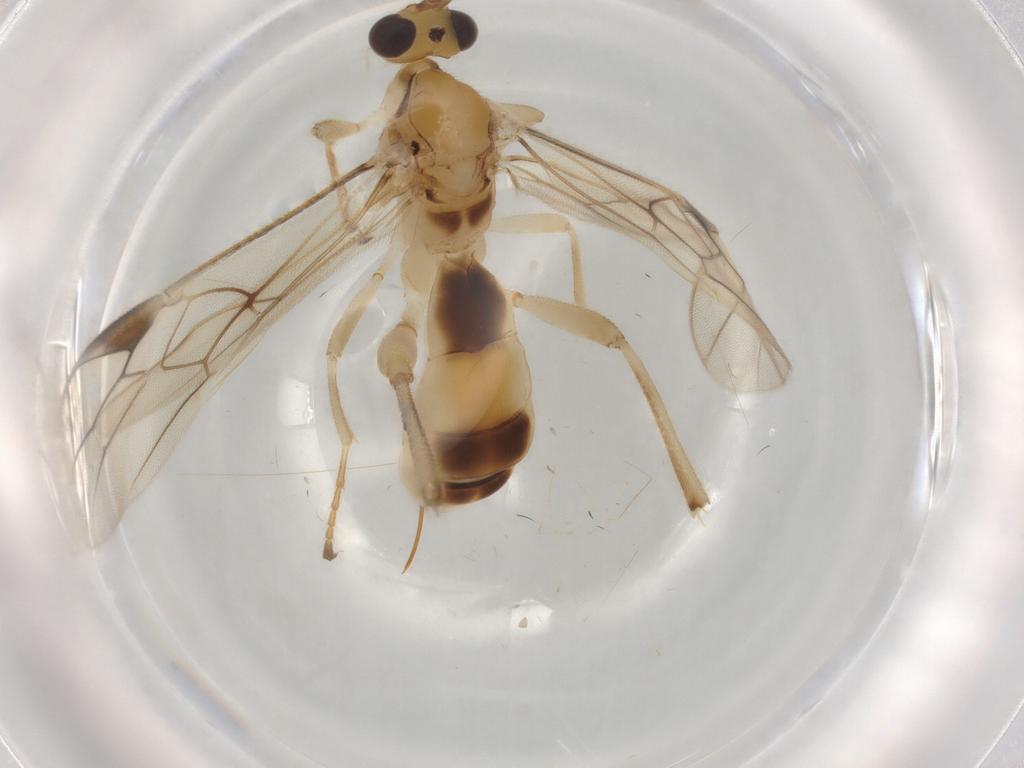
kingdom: Animalia
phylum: Arthropoda
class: Insecta
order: Hymenoptera
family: Braconidae
